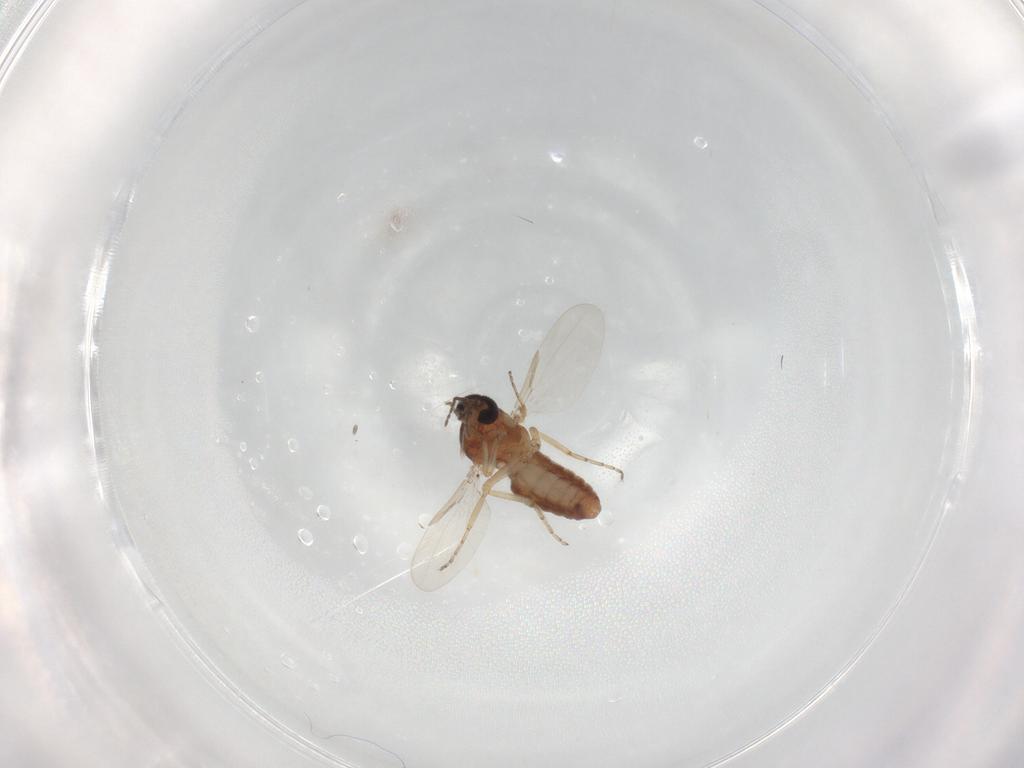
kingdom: Animalia
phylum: Arthropoda
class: Insecta
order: Diptera
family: Ceratopogonidae
